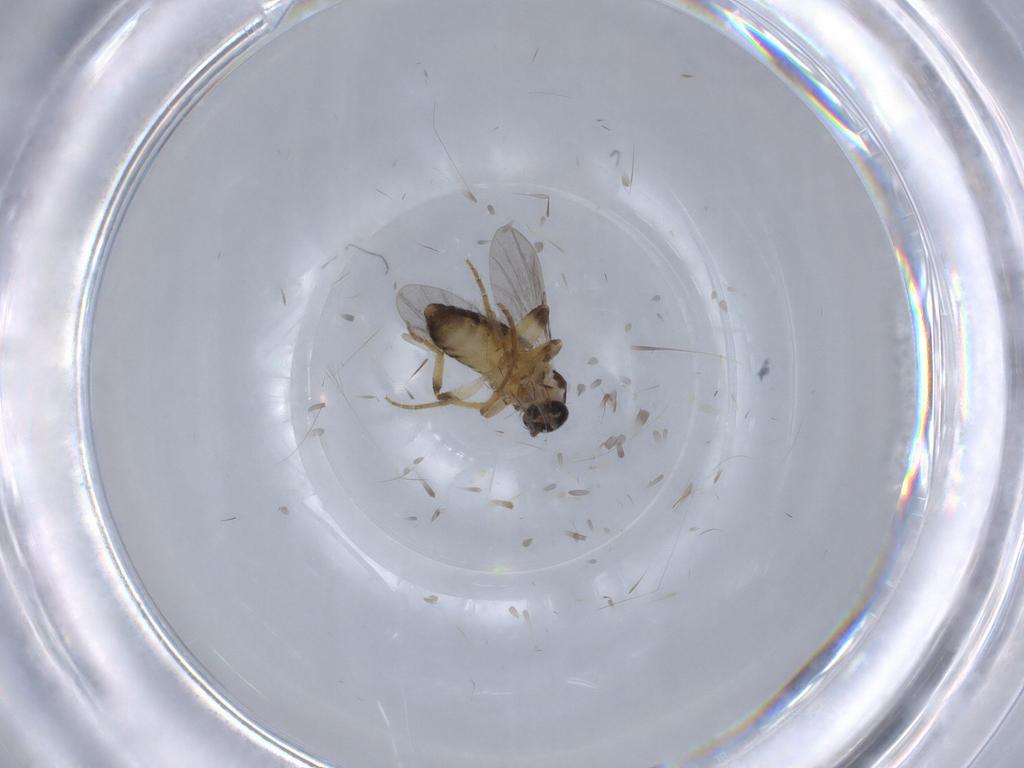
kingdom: Animalia
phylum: Arthropoda
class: Insecta
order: Diptera
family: Ceratopogonidae
